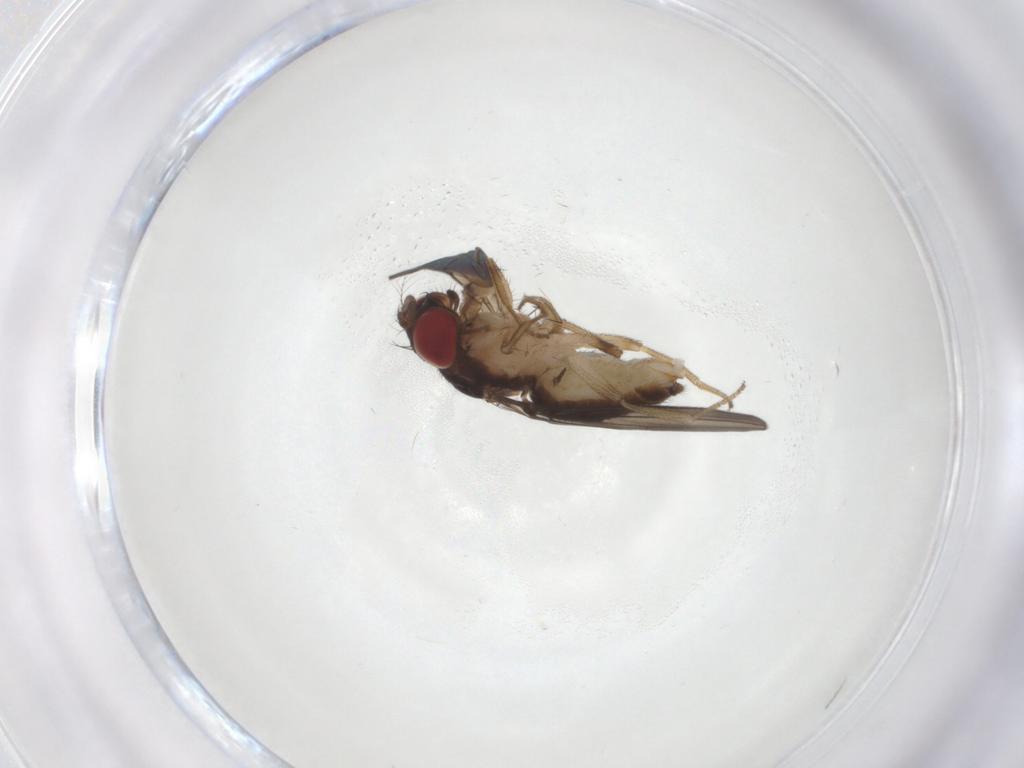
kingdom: Animalia
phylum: Arthropoda
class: Insecta
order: Diptera
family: Drosophilidae
